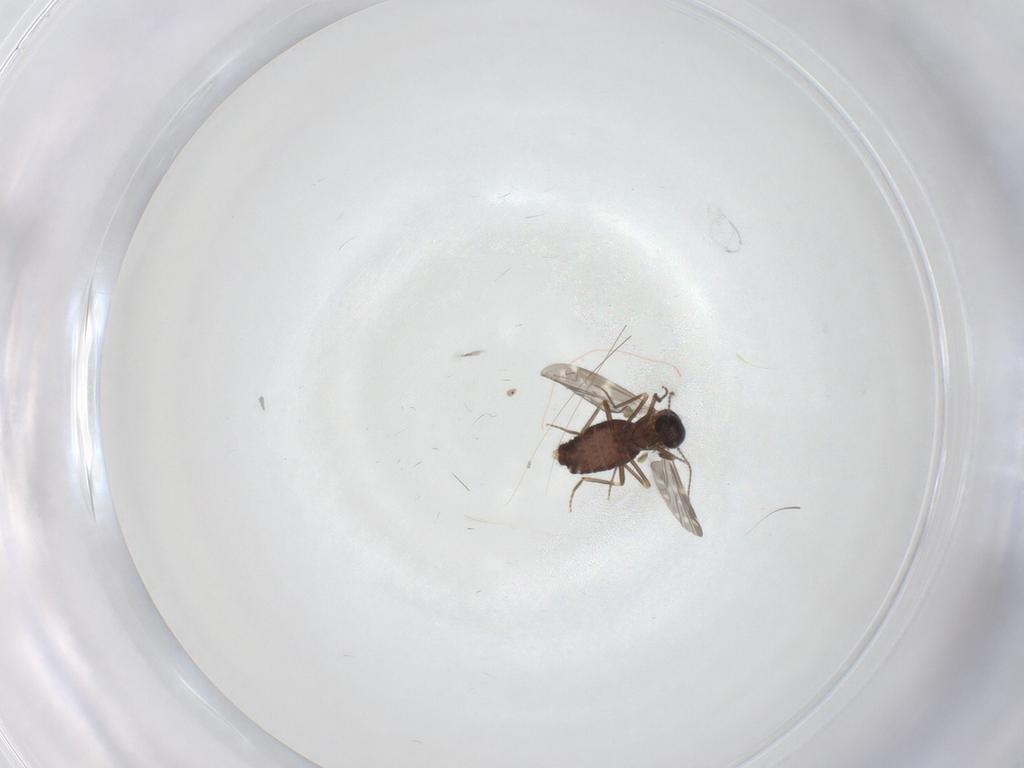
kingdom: Animalia
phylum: Arthropoda
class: Insecta
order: Diptera
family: Ceratopogonidae
